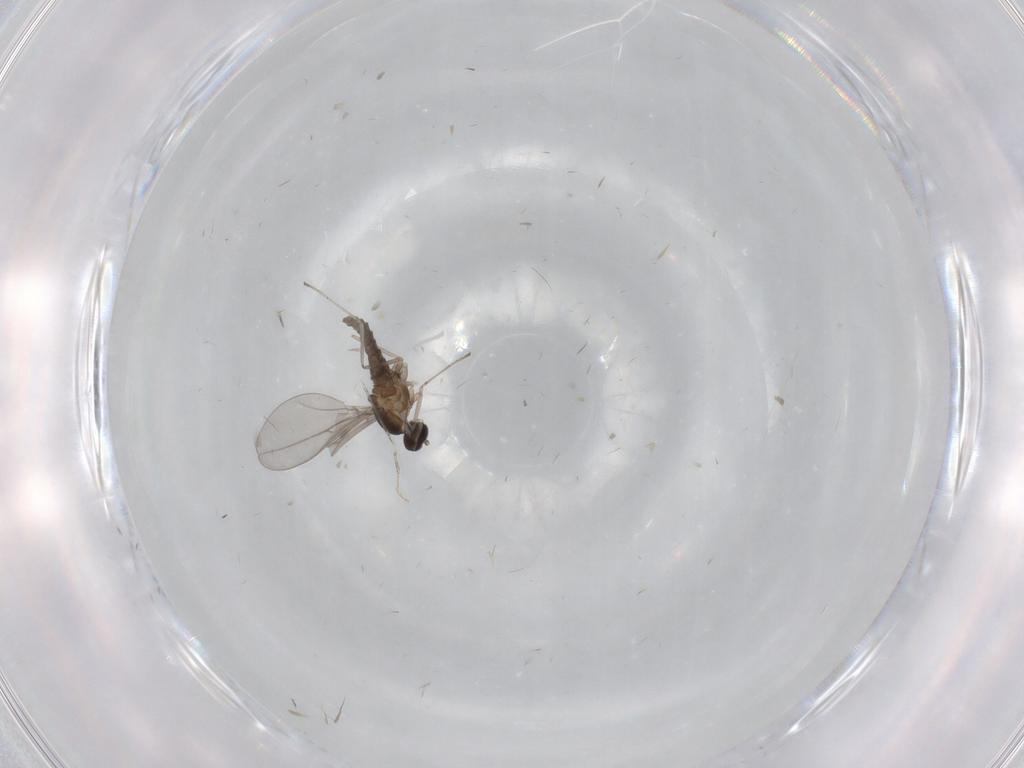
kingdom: Animalia
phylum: Arthropoda
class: Insecta
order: Diptera
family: Cecidomyiidae
